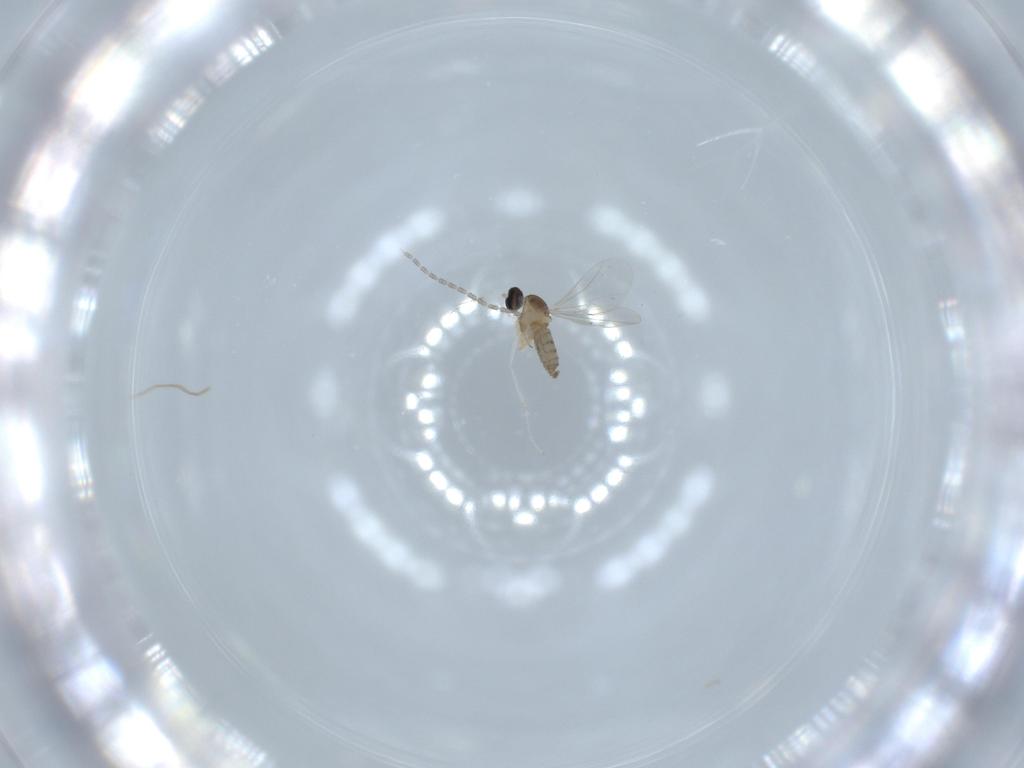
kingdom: Animalia
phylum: Arthropoda
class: Insecta
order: Diptera
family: Cecidomyiidae
